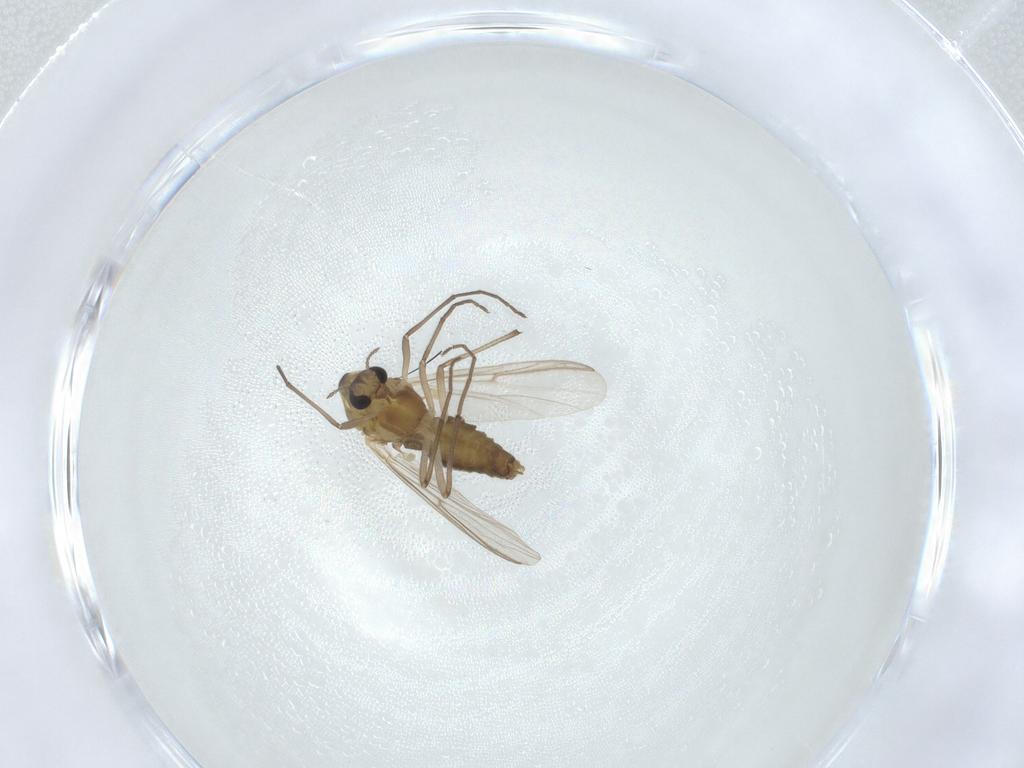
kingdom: Animalia
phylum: Arthropoda
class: Insecta
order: Diptera
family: Chironomidae
